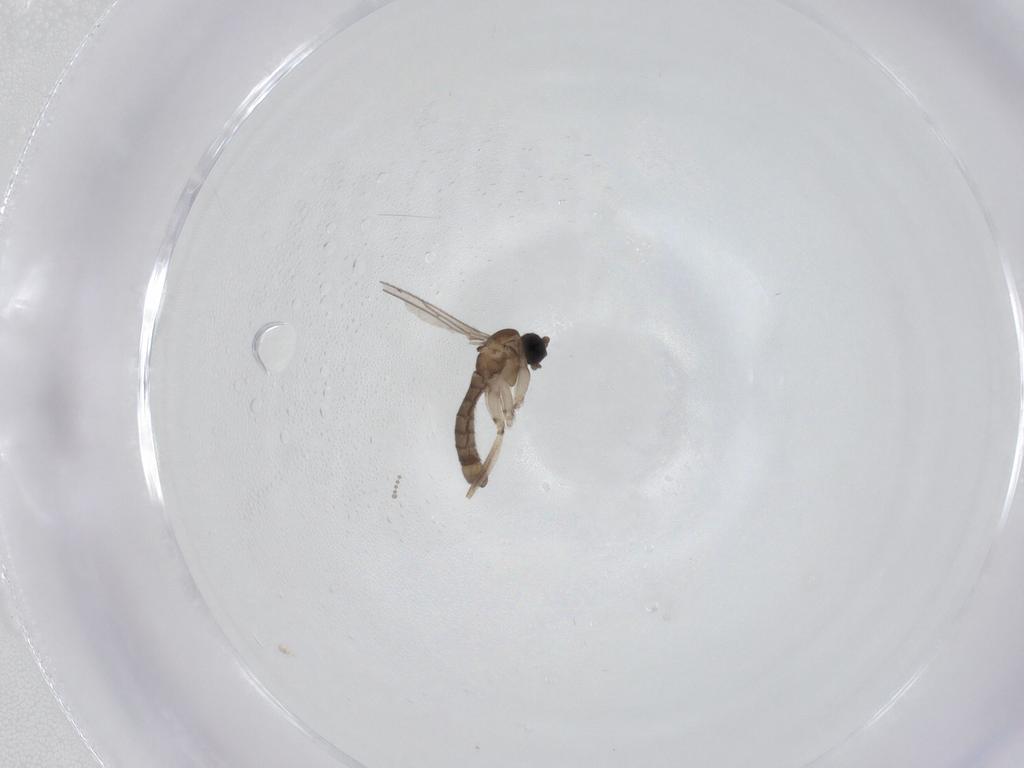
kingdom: Animalia
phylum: Arthropoda
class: Insecta
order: Diptera
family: Sciaridae
